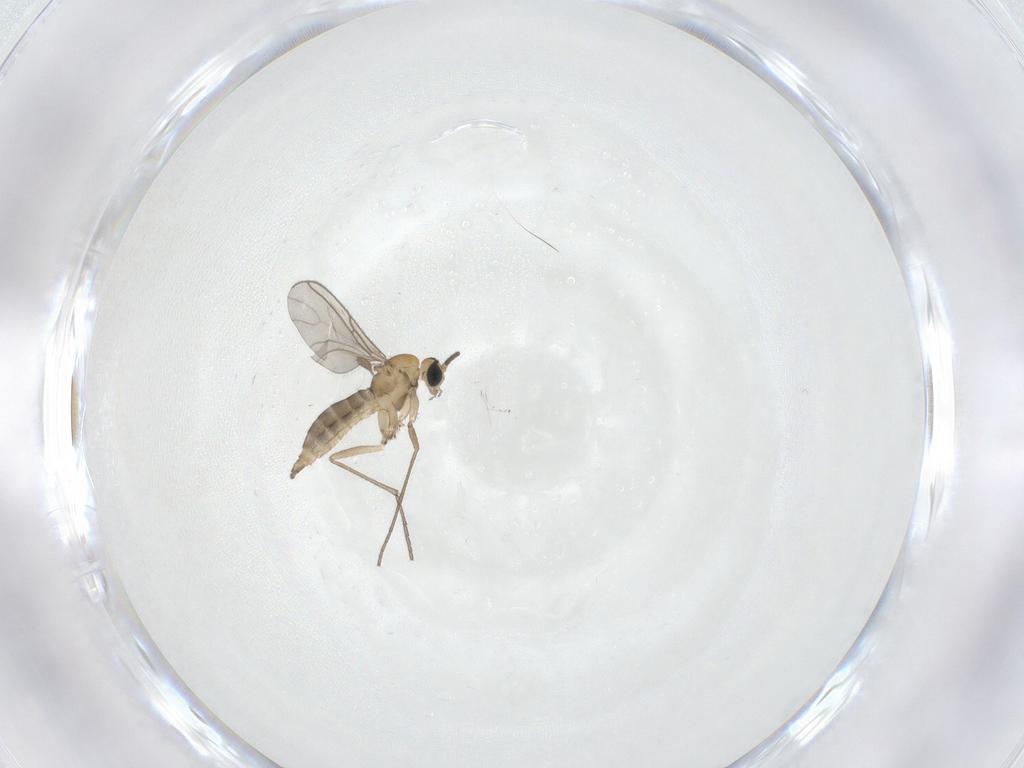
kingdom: Animalia
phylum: Arthropoda
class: Insecta
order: Diptera
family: Sciaridae
